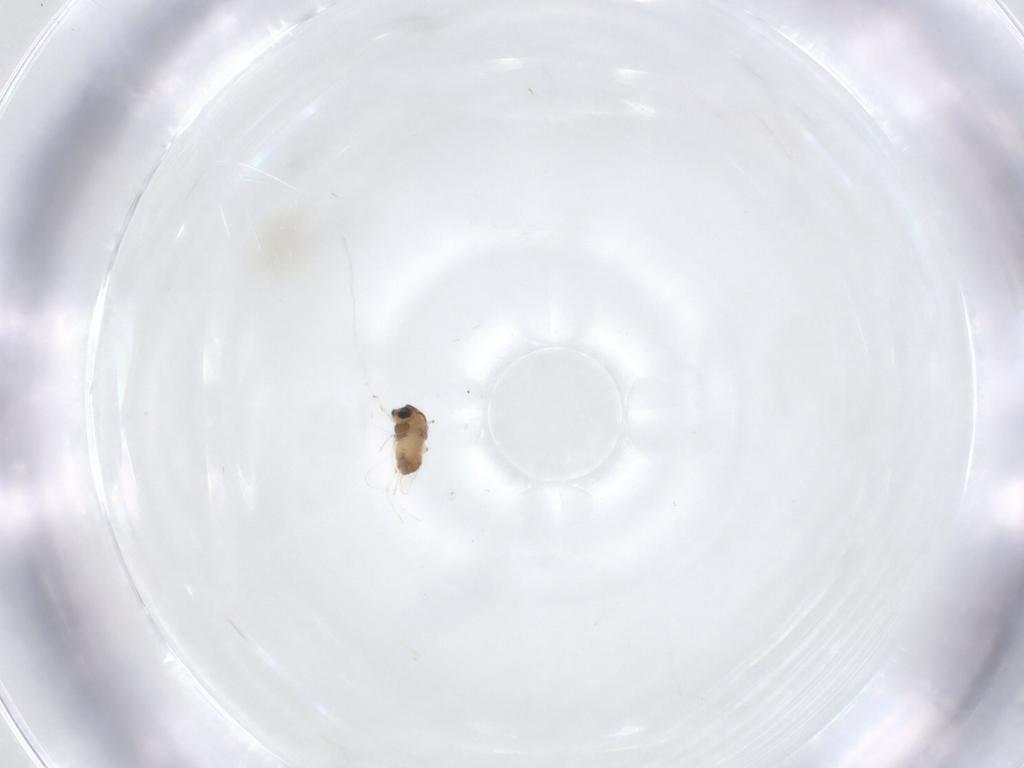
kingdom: Animalia
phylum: Arthropoda
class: Insecta
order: Diptera
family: Chironomidae
